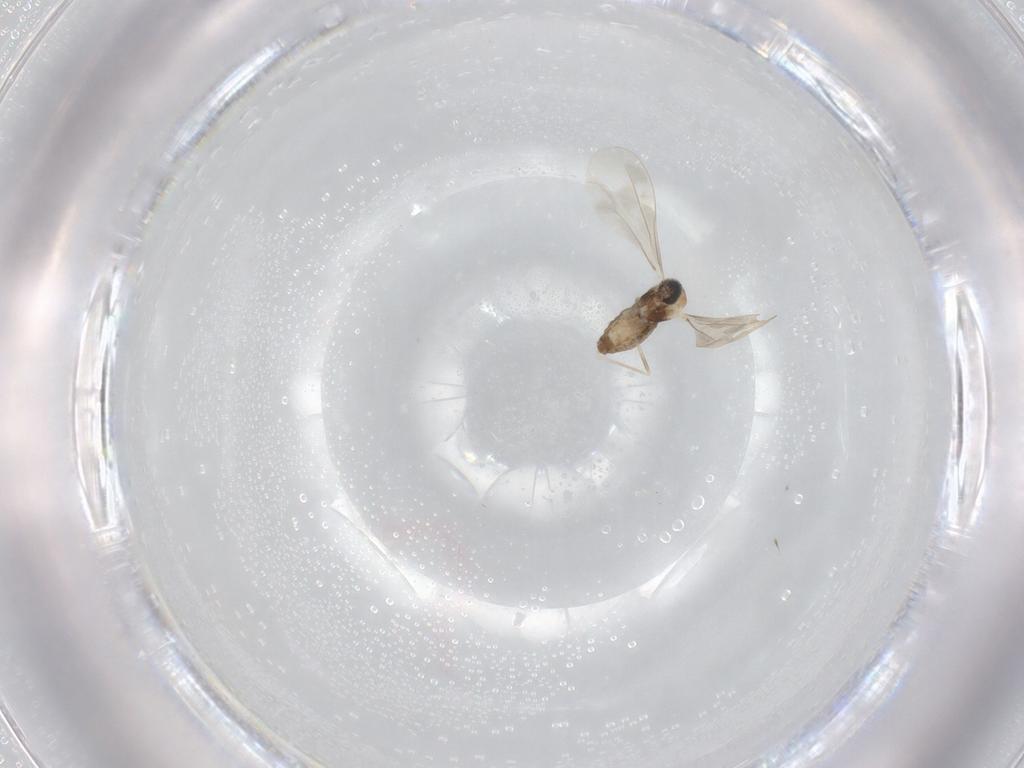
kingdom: Animalia
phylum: Arthropoda
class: Insecta
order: Diptera
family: Cecidomyiidae
